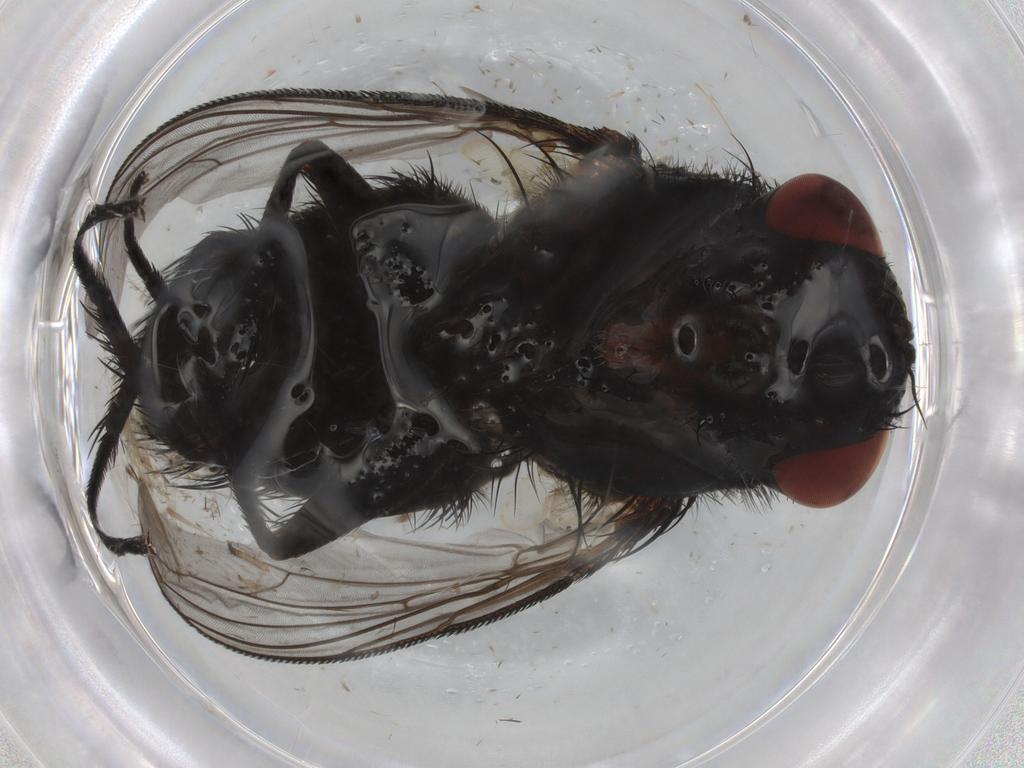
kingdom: Animalia
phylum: Arthropoda
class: Insecta
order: Diptera
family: Tachinidae
